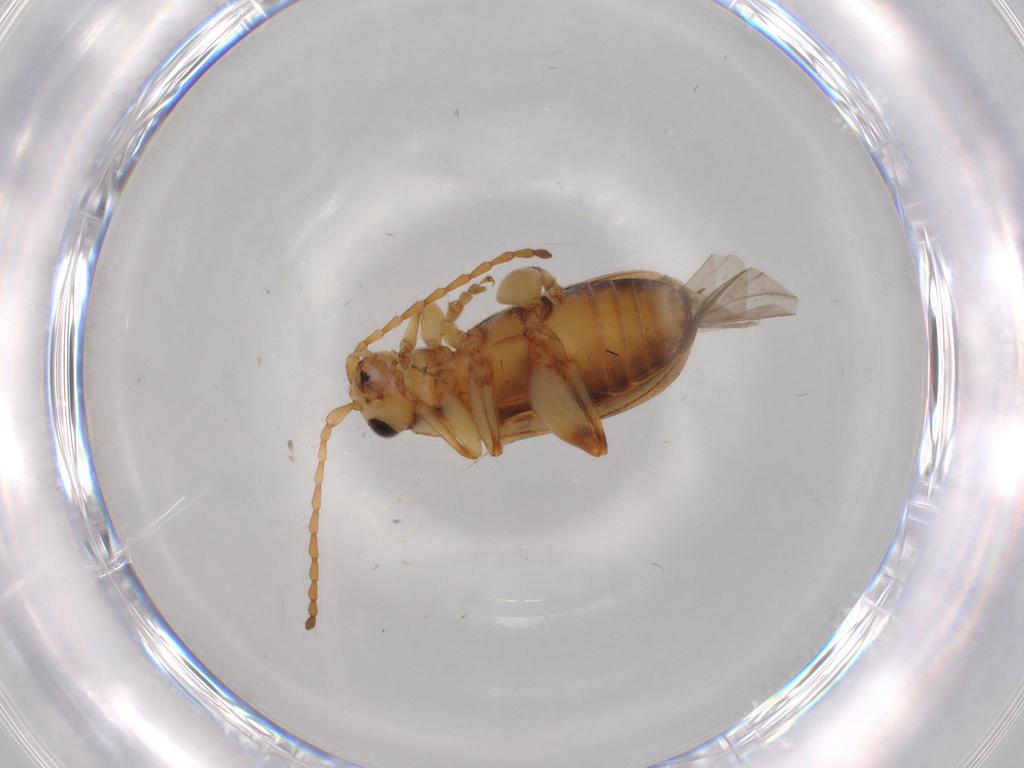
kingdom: Animalia
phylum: Arthropoda
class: Insecta
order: Coleoptera
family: Chrysomelidae
